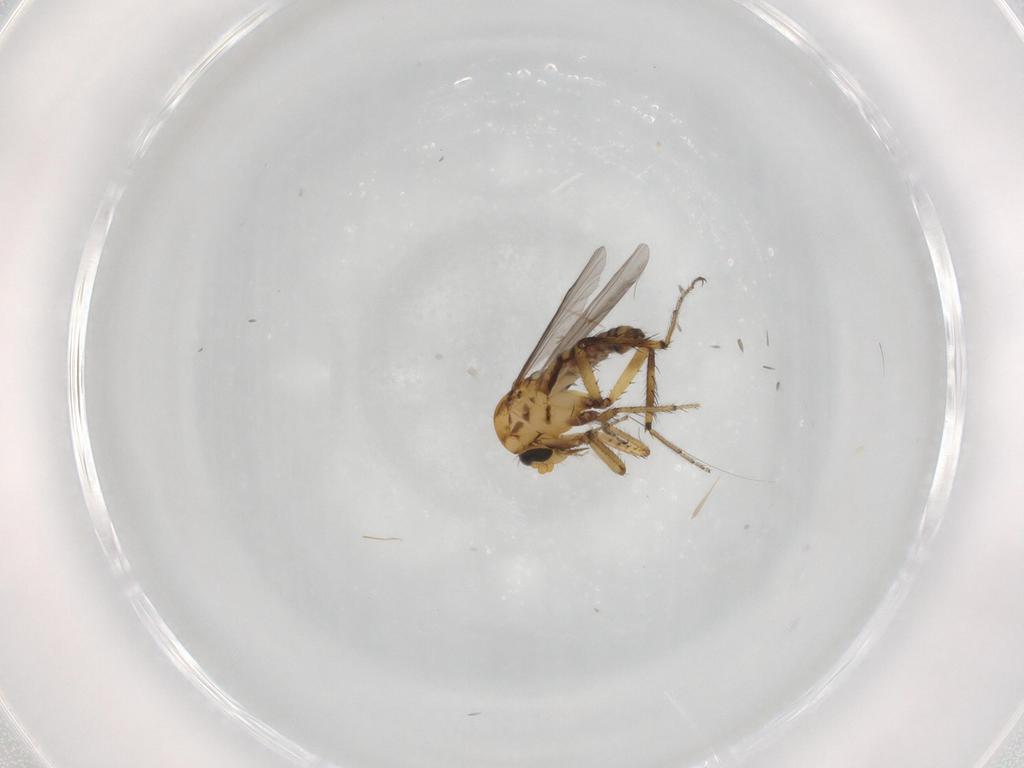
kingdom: Animalia
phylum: Arthropoda
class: Insecta
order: Diptera
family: Ceratopogonidae
